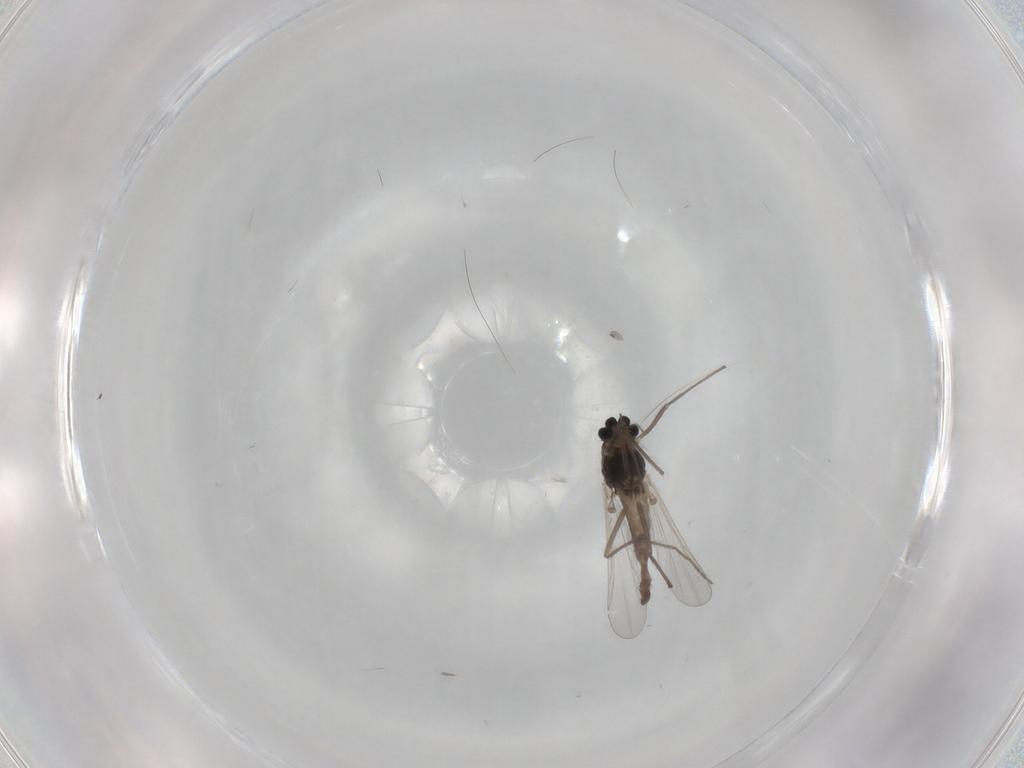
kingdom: Animalia
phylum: Arthropoda
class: Insecta
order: Diptera
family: Chironomidae
